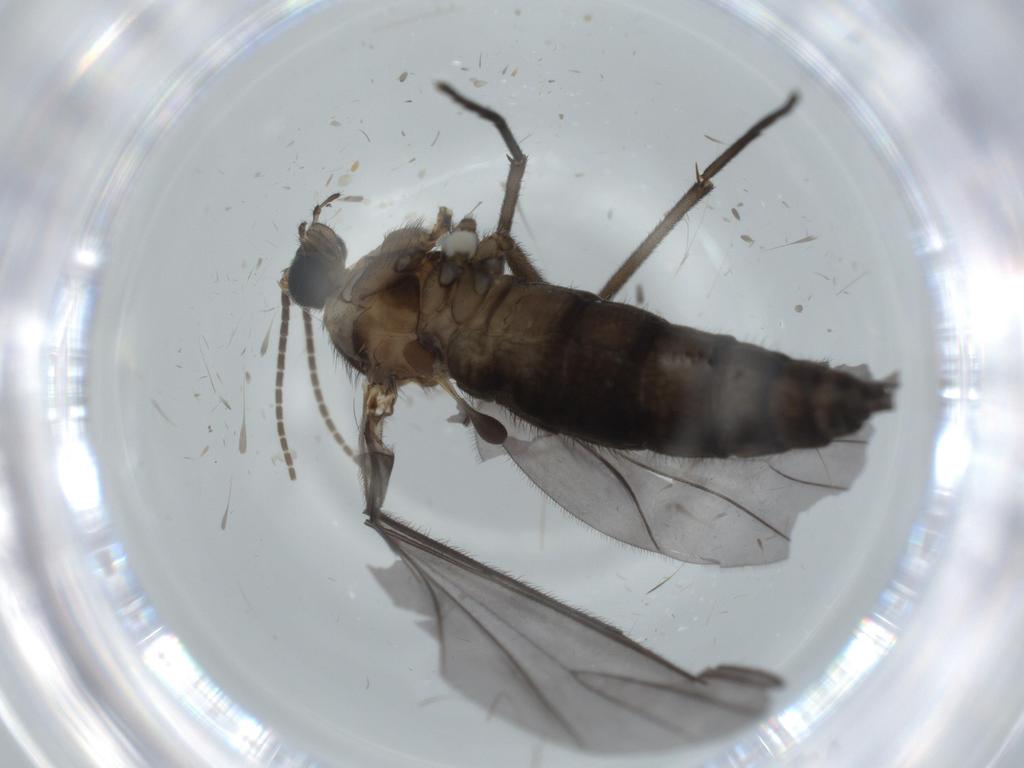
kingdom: Animalia
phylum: Arthropoda
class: Insecta
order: Diptera
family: Sciaridae
